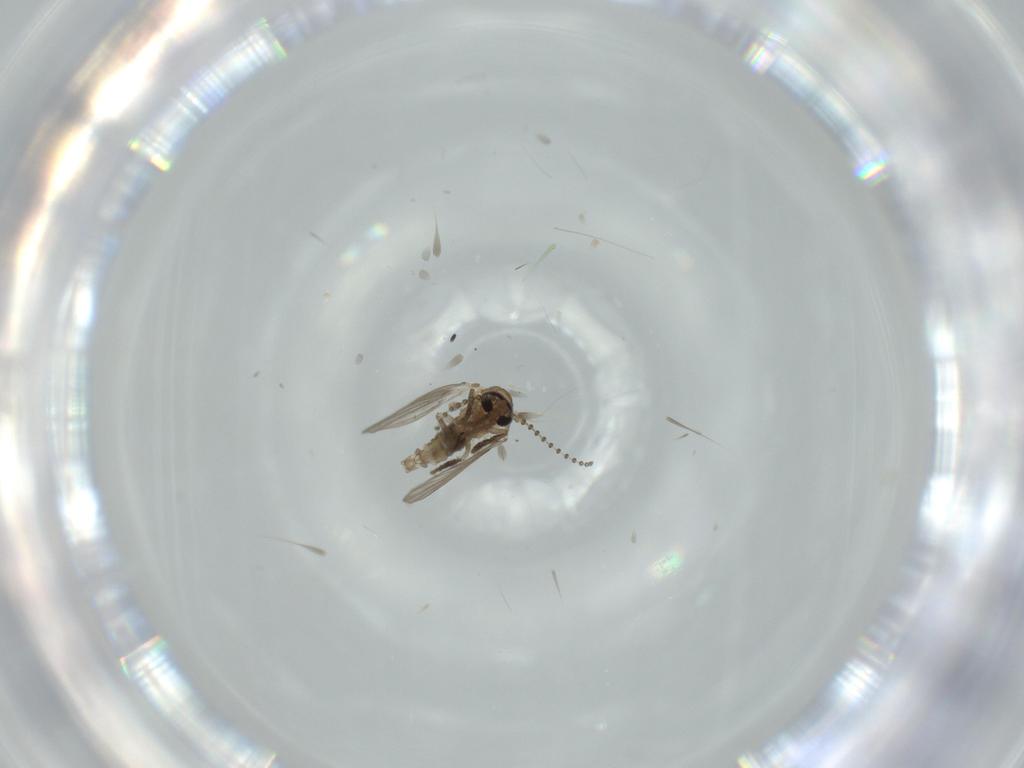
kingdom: Animalia
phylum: Arthropoda
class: Insecta
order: Diptera
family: Psychodidae
